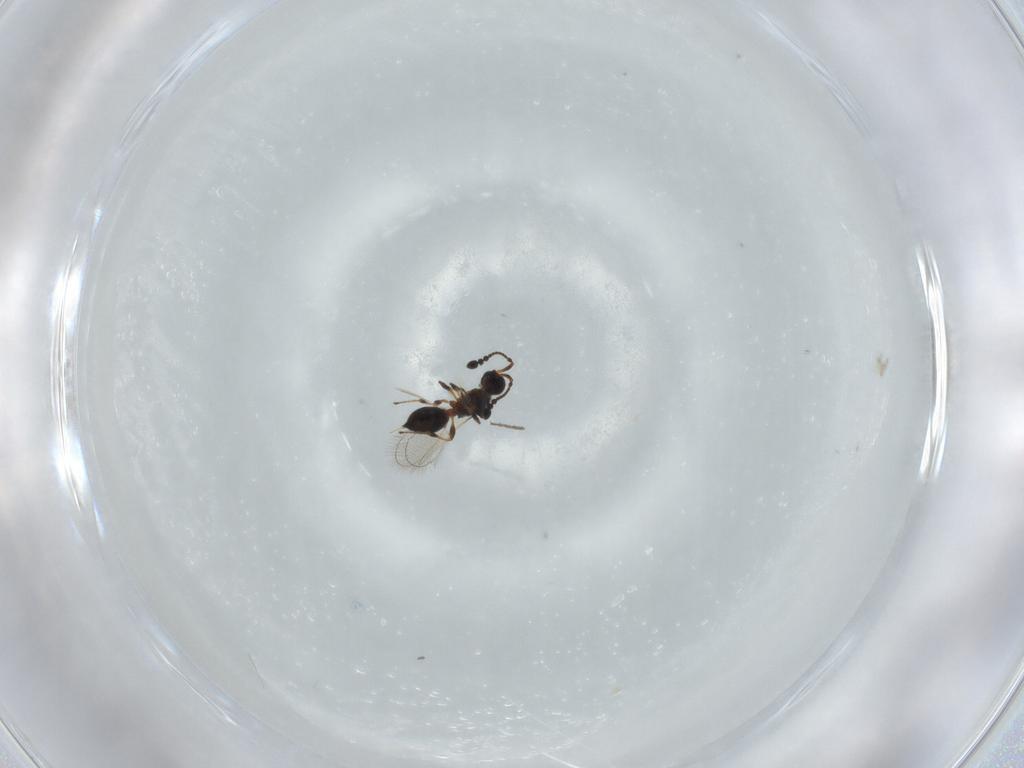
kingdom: Animalia
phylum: Arthropoda
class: Insecta
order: Hymenoptera
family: Diapriidae
